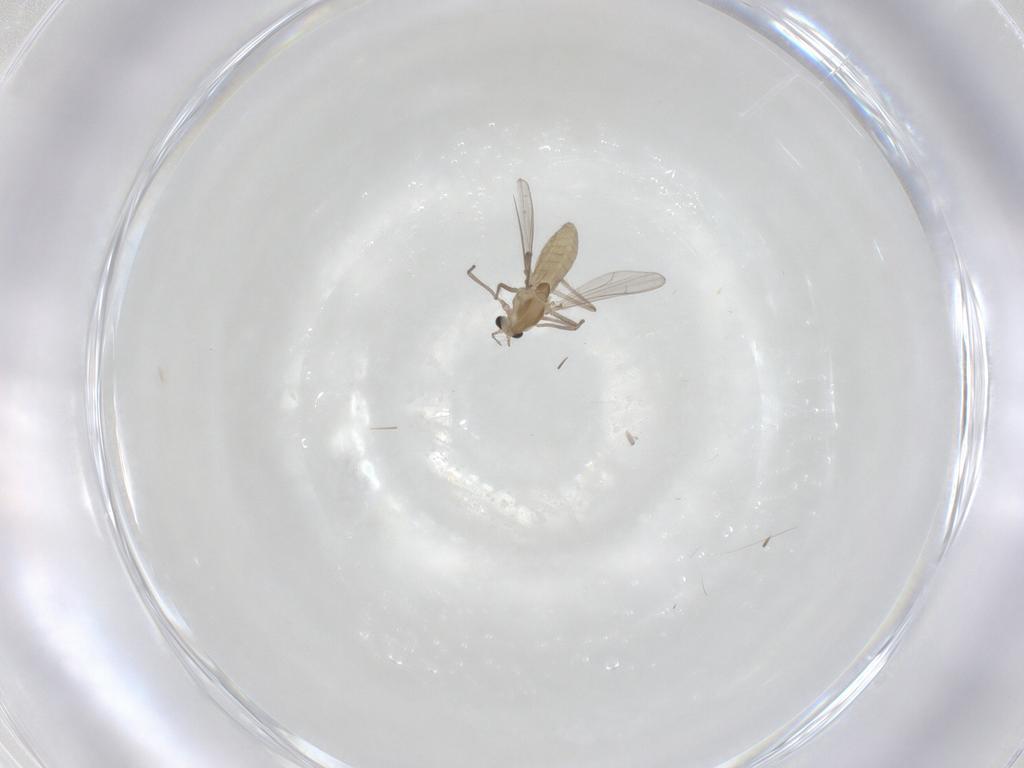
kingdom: Animalia
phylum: Arthropoda
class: Insecta
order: Diptera
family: Chironomidae
